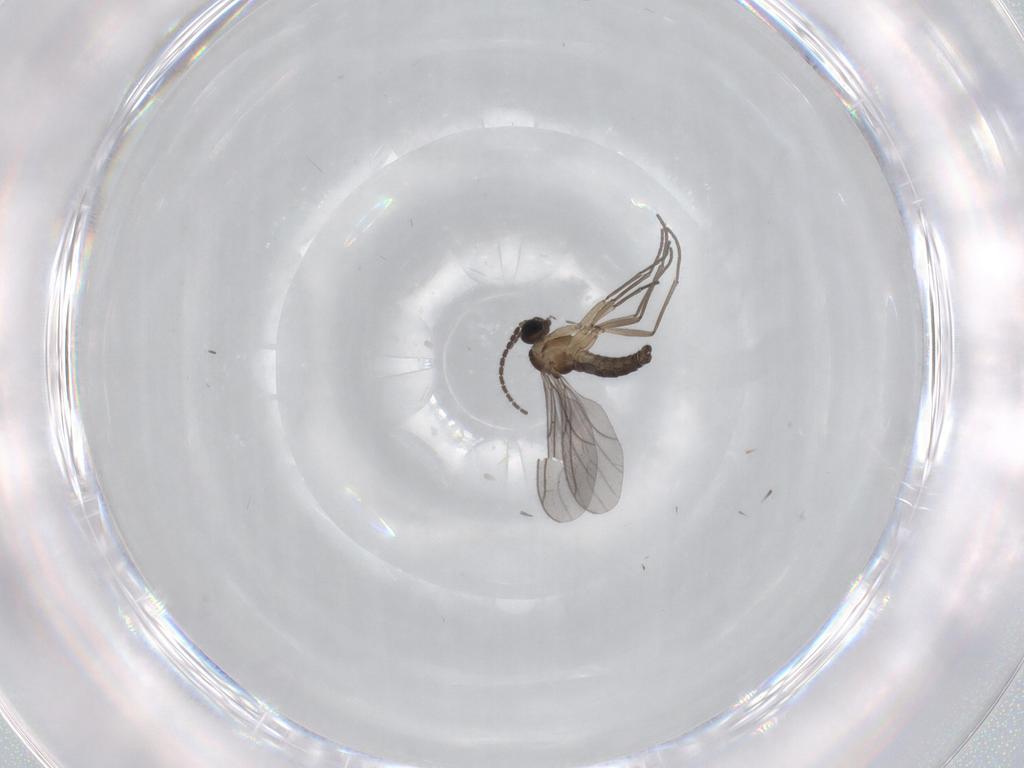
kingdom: Animalia
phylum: Arthropoda
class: Insecta
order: Diptera
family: Sciaridae
